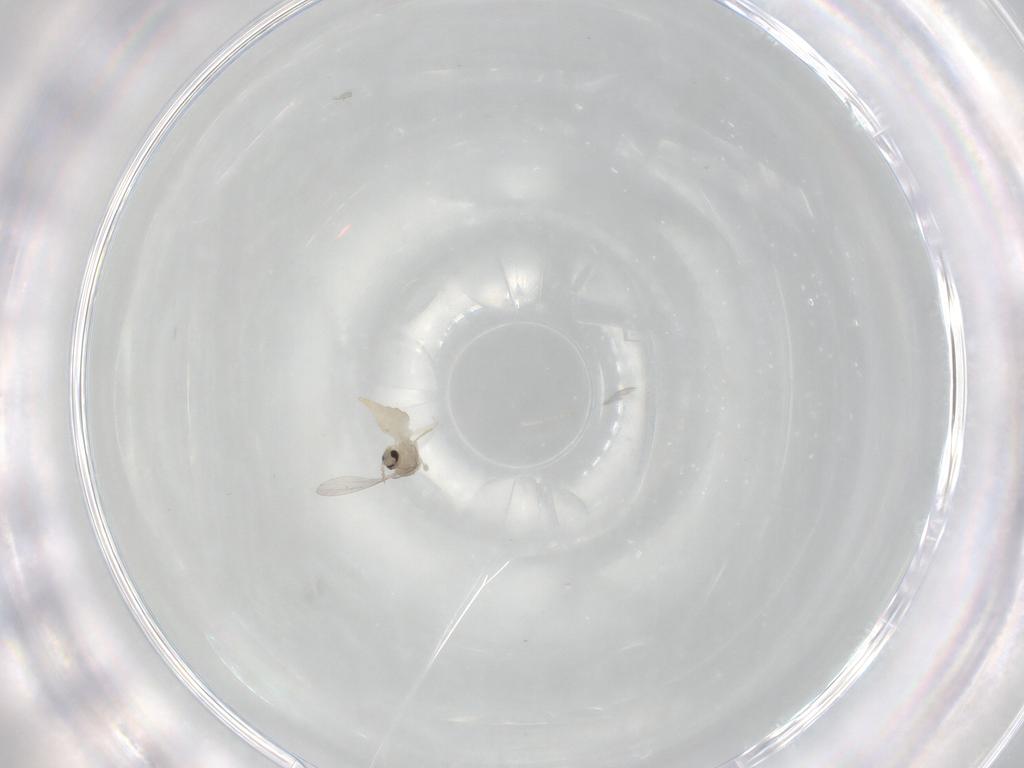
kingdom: Animalia
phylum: Arthropoda
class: Insecta
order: Diptera
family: Cecidomyiidae
